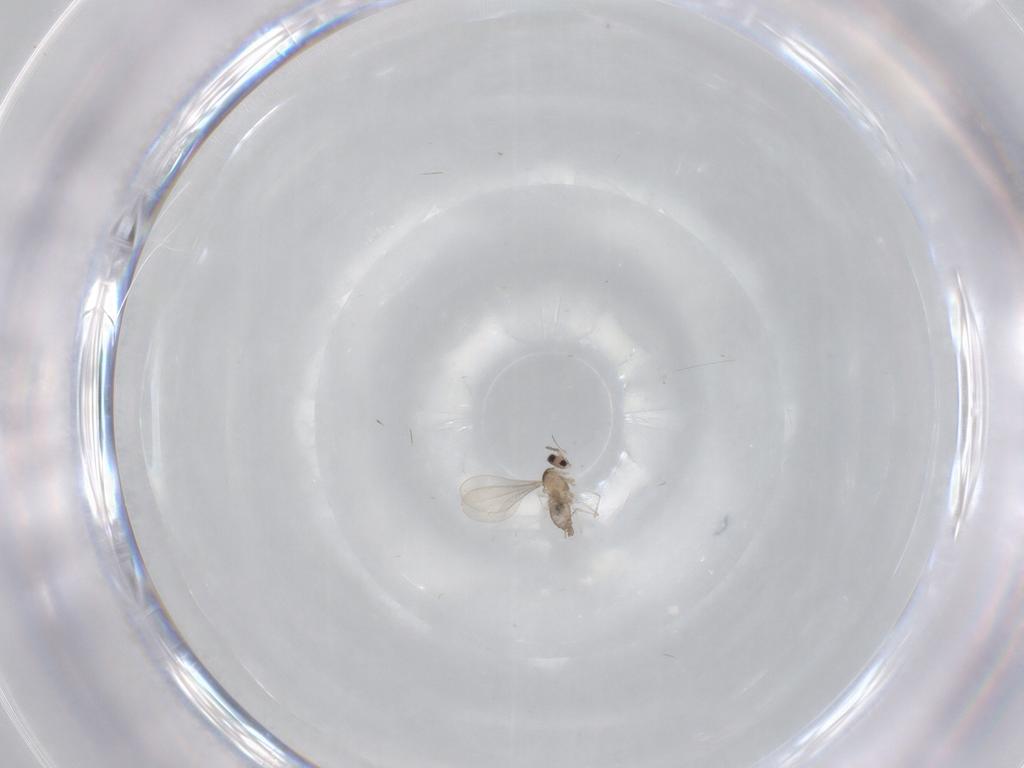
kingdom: Animalia
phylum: Arthropoda
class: Insecta
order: Diptera
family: Cecidomyiidae
